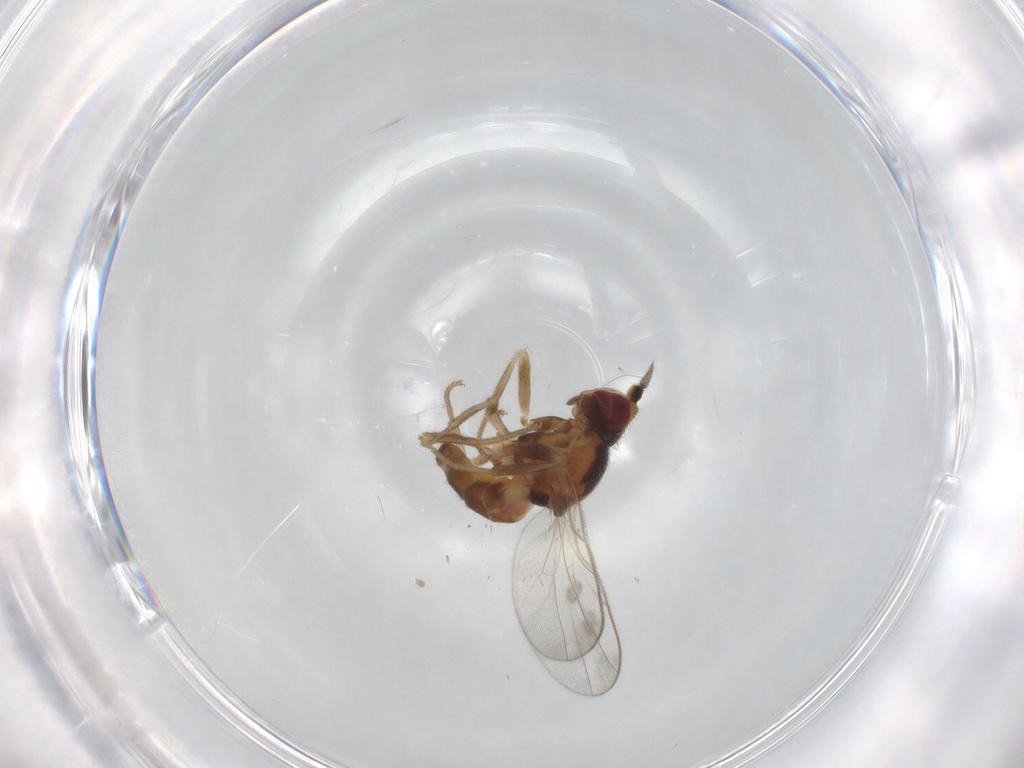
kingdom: Animalia
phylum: Arthropoda
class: Insecta
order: Diptera
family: Chloropidae
